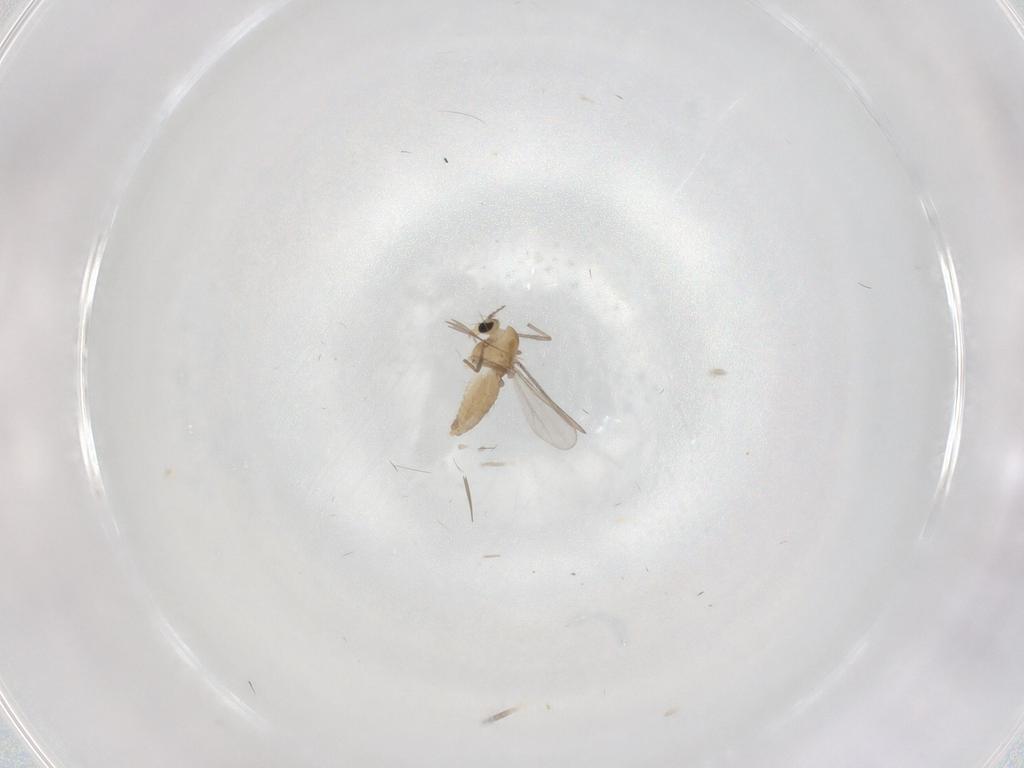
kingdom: Animalia
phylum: Arthropoda
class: Insecta
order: Diptera
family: Chironomidae
